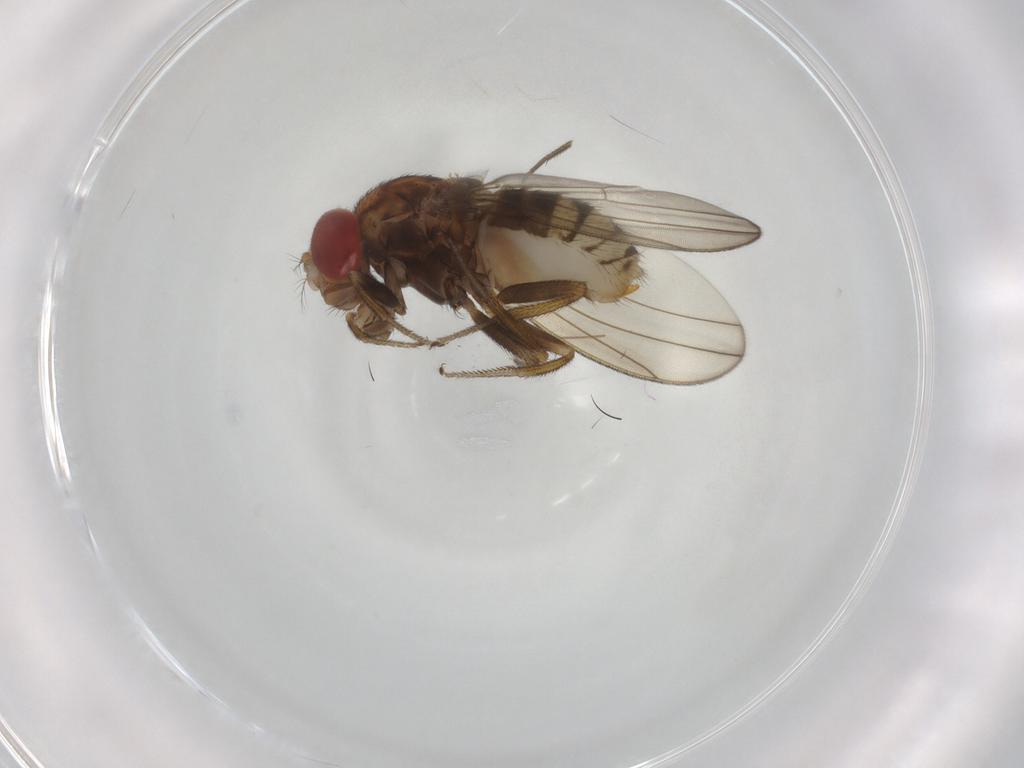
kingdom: Animalia
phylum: Arthropoda
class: Insecta
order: Diptera
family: Drosophilidae
